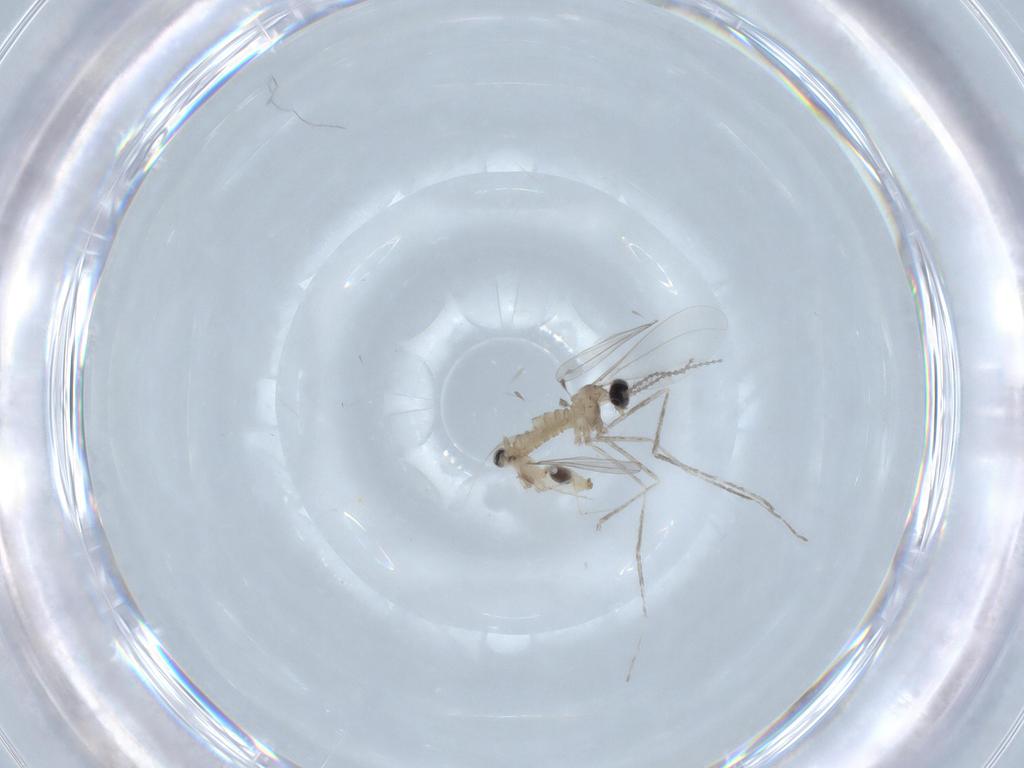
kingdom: Animalia
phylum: Arthropoda
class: Insecta
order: Diptera
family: Cecidomyiidae
